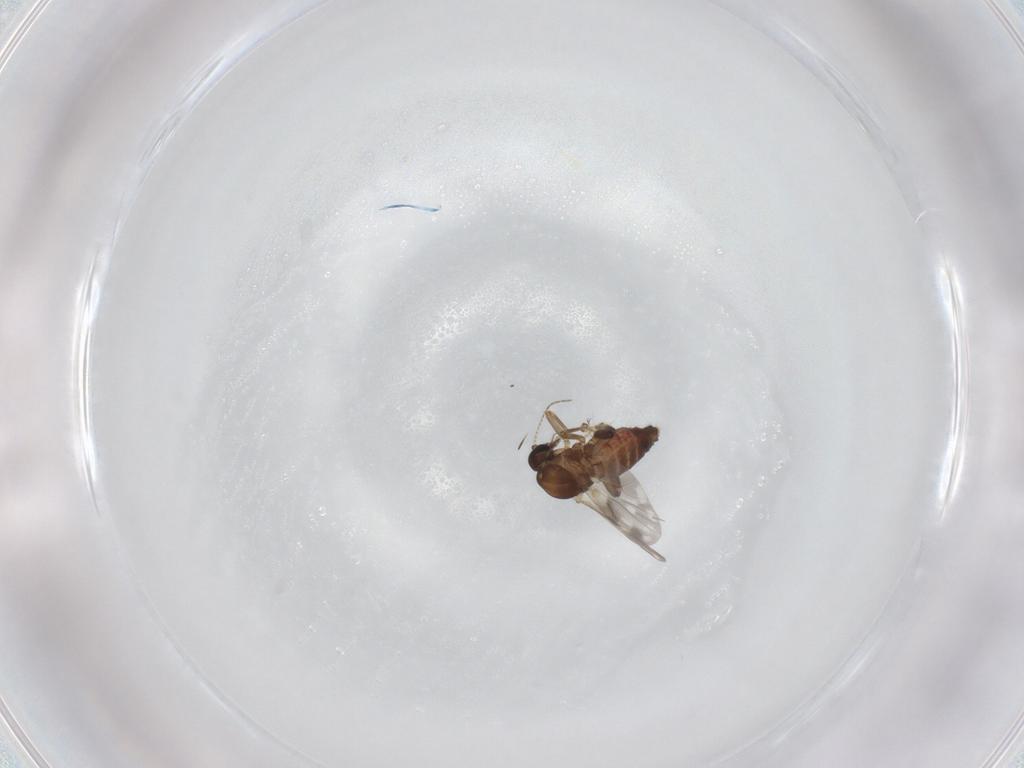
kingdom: Animalia
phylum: Arthropoda
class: Insecta
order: Diptera
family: Ceratopogonidae
